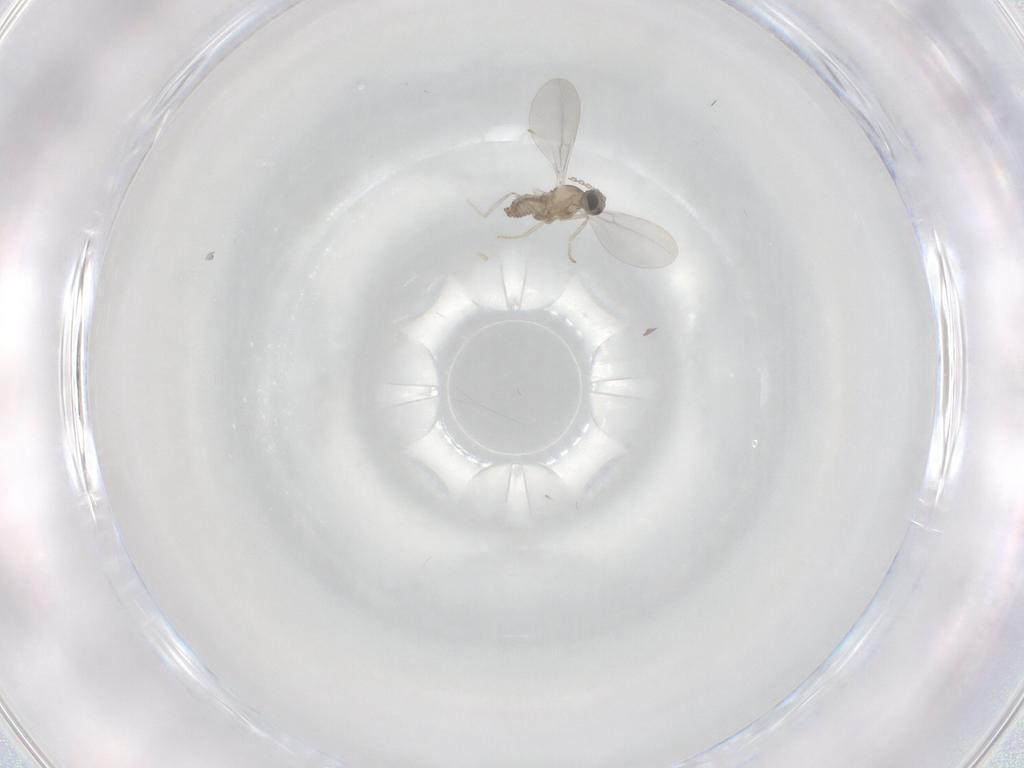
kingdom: Animalia
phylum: Arthropoda
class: Insecta
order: Diptera
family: Cecidomyiidae
